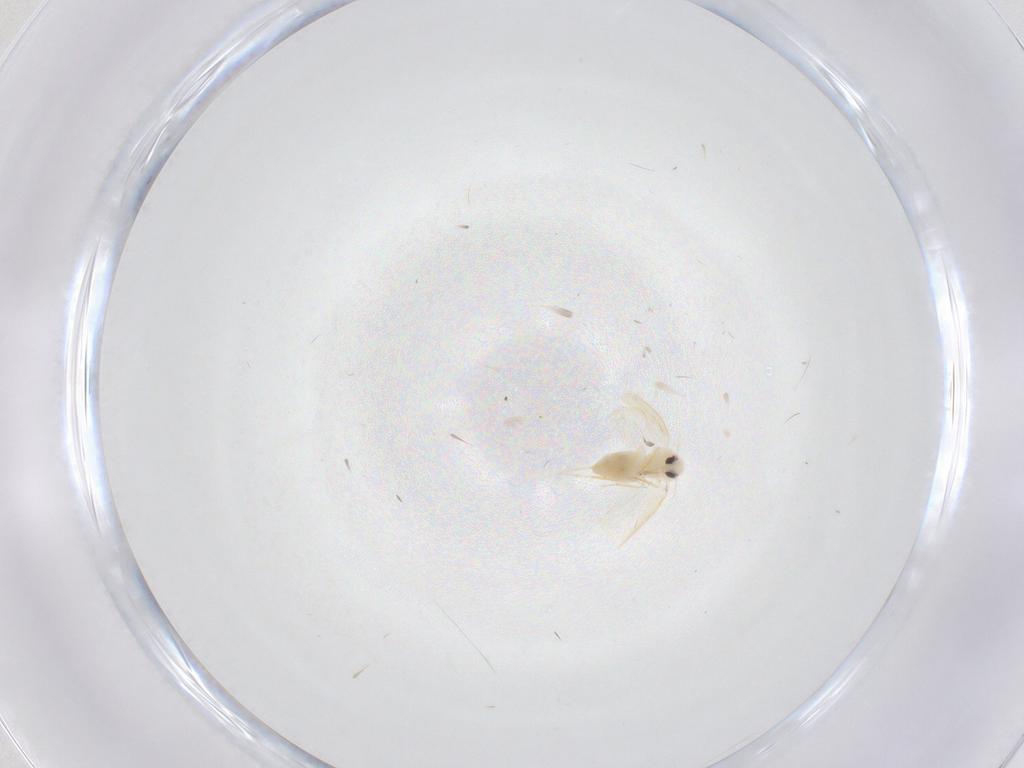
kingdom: Animalia
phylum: Arthropoda
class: Insecta
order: Hemiptera
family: Aleyrodidae
